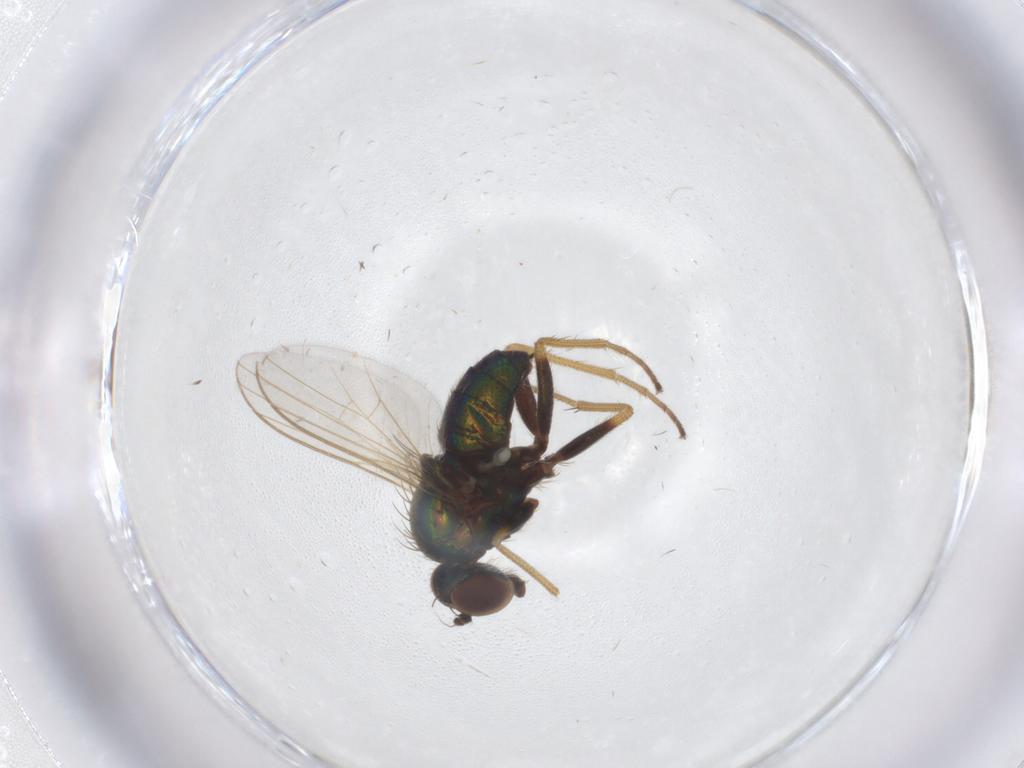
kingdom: Animalia
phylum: Arthropoda
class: Insecta
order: Diptera
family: Dolichopodidae
